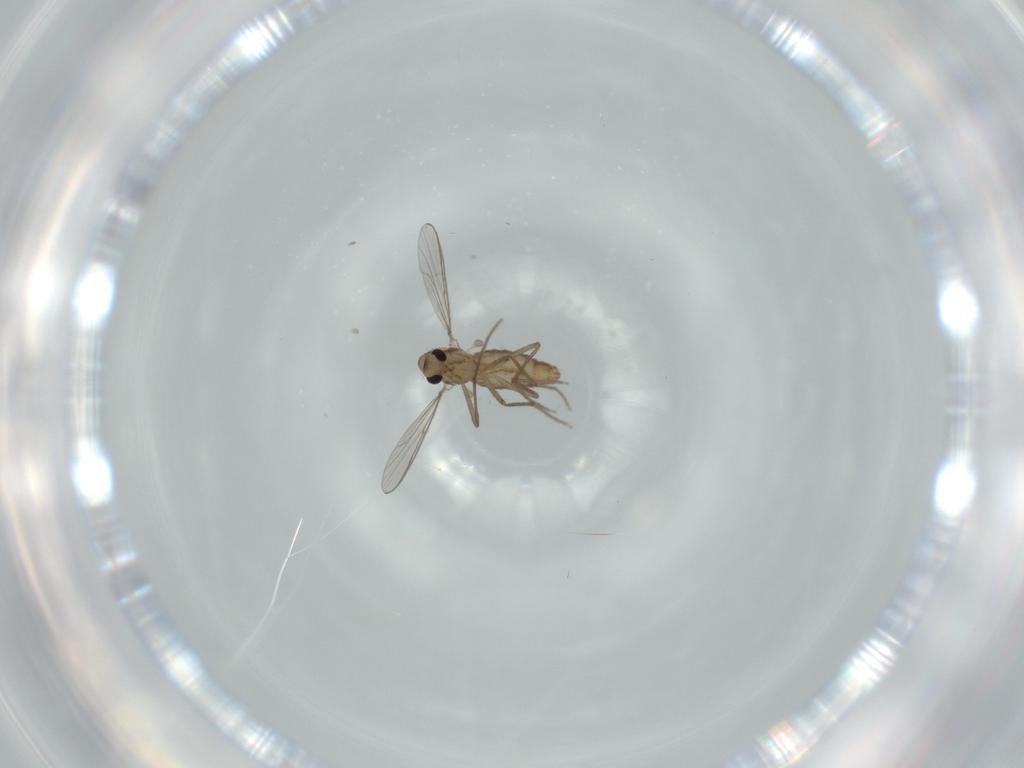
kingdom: Animalia
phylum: Arthropoda
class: Insecta
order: Diptera
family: Chironomidae
